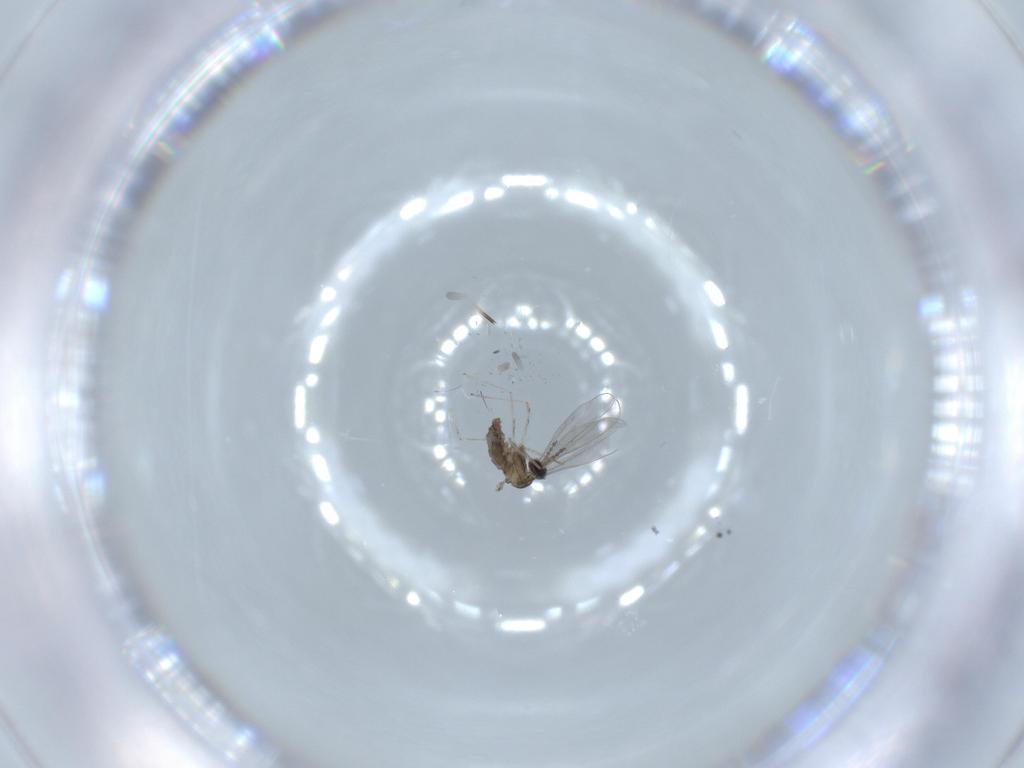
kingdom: Animalia
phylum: Arthropoda
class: Insecta
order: Diptera
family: Cecidomyiidae
